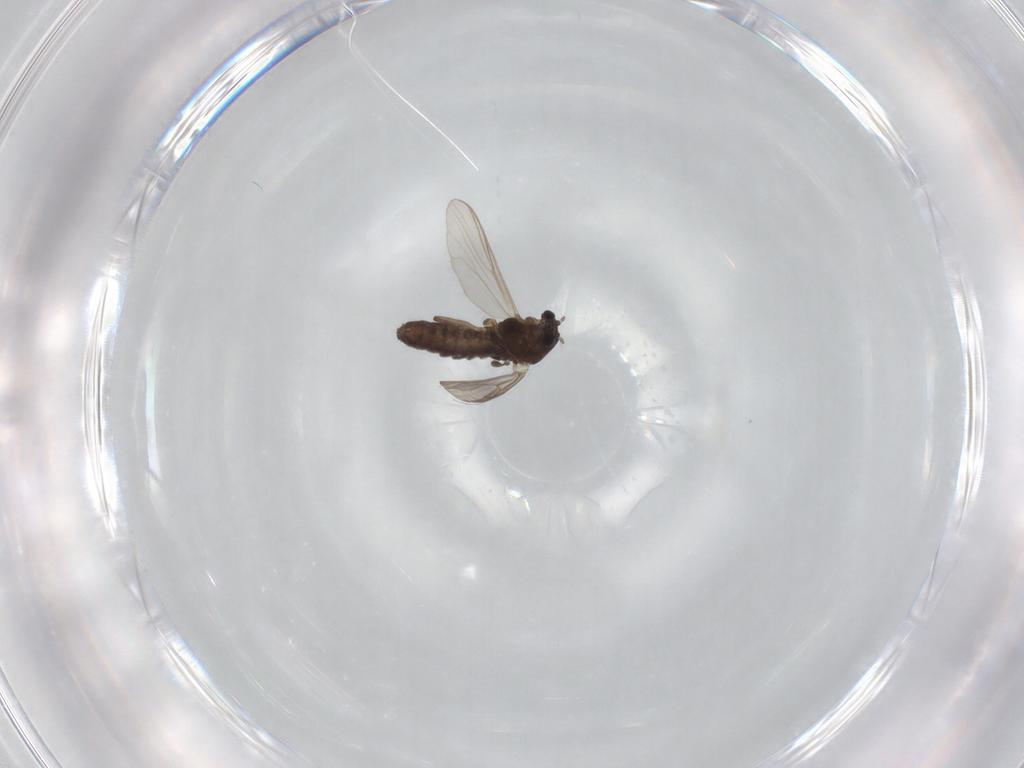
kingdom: Animalia
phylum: Arthropoda
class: Insecta
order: Diptera
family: Chironomidae
